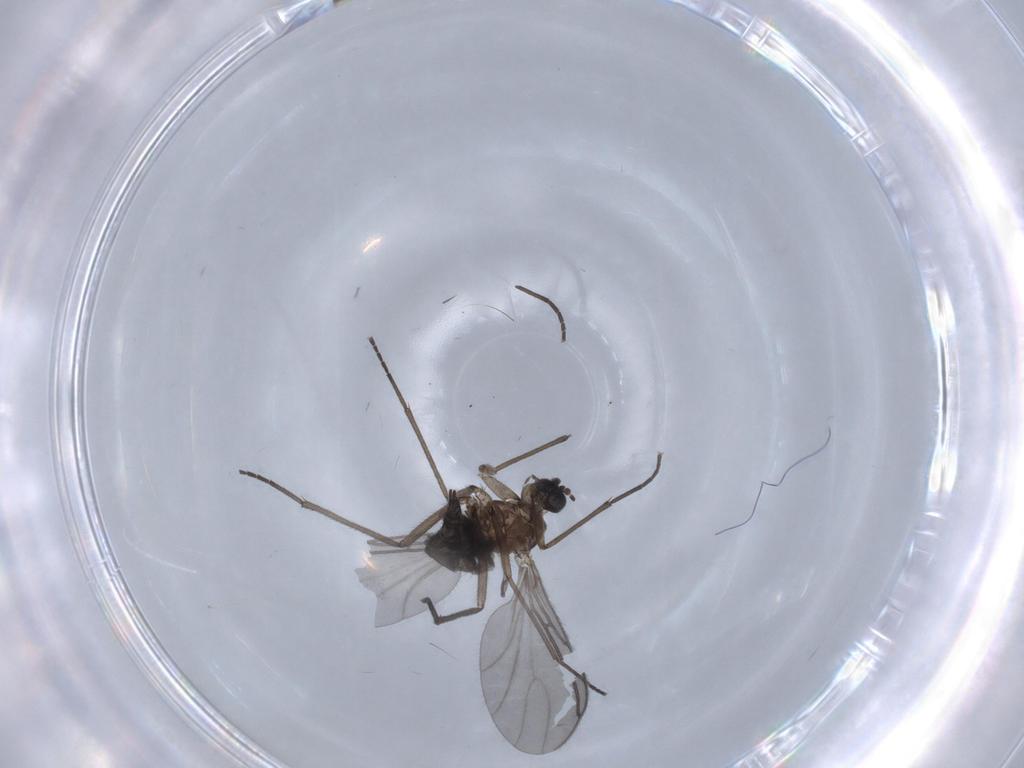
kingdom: Animalia
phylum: Arthropoda
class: Insecta
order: Diptera
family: Cecidomyiidae
